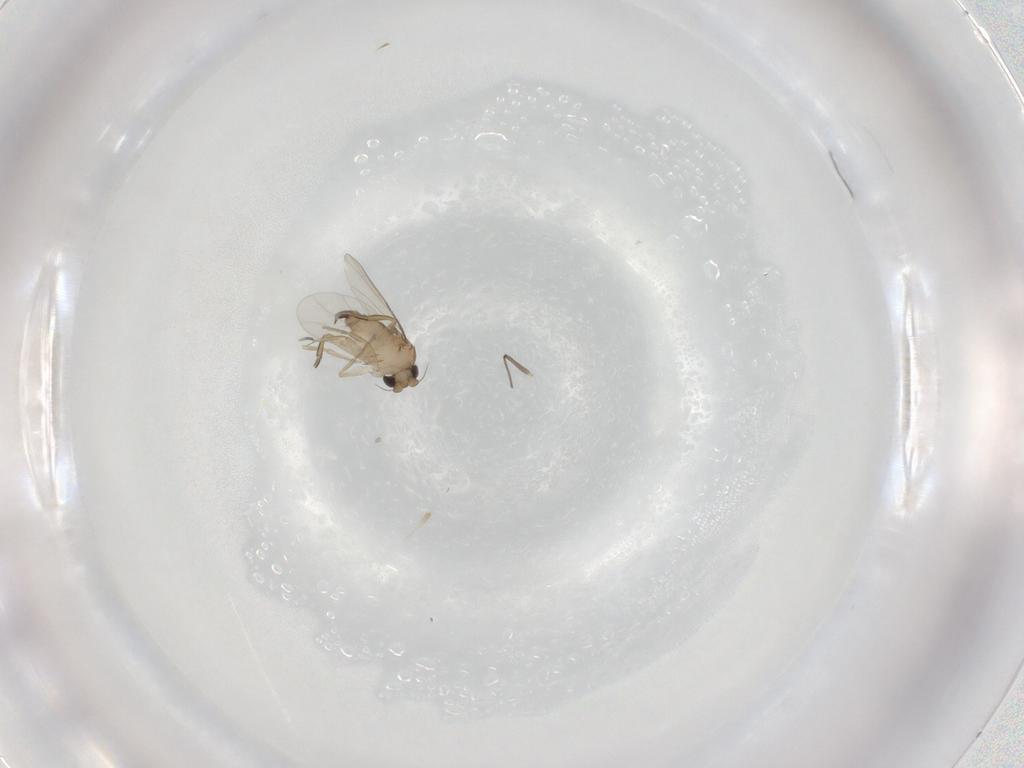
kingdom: Animalia
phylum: Arthropoda
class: Insecta
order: Diptera
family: Phoridae
